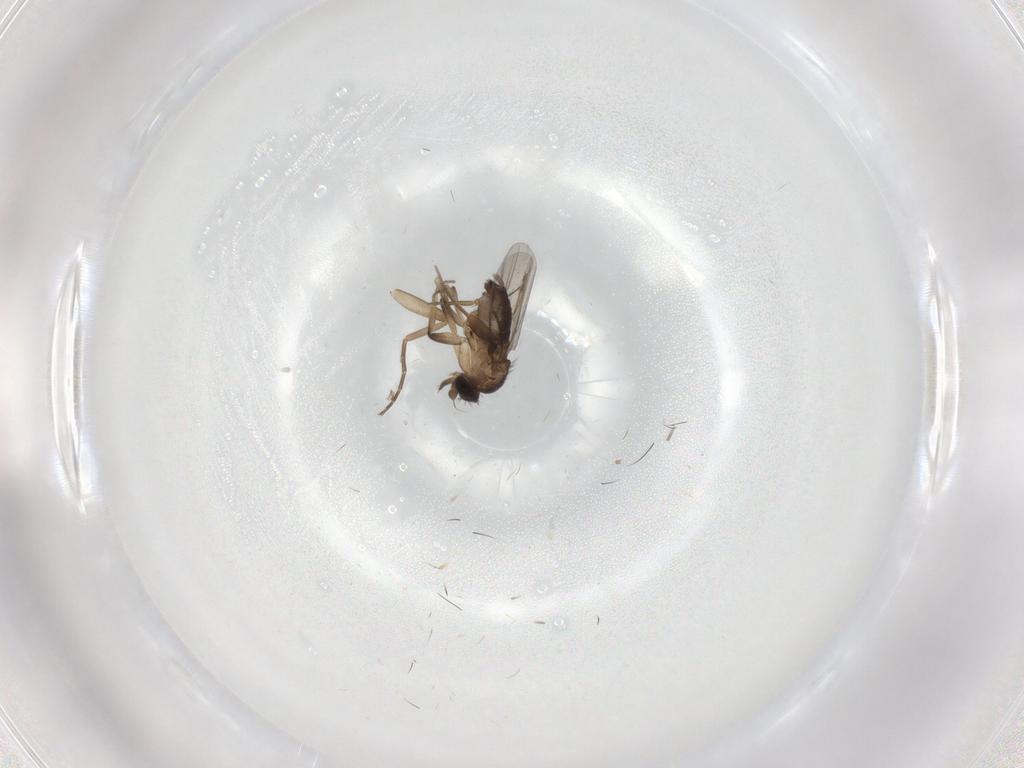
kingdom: Animalia
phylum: Arthropoda
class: Insecta
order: Diptera
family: Phoridae
